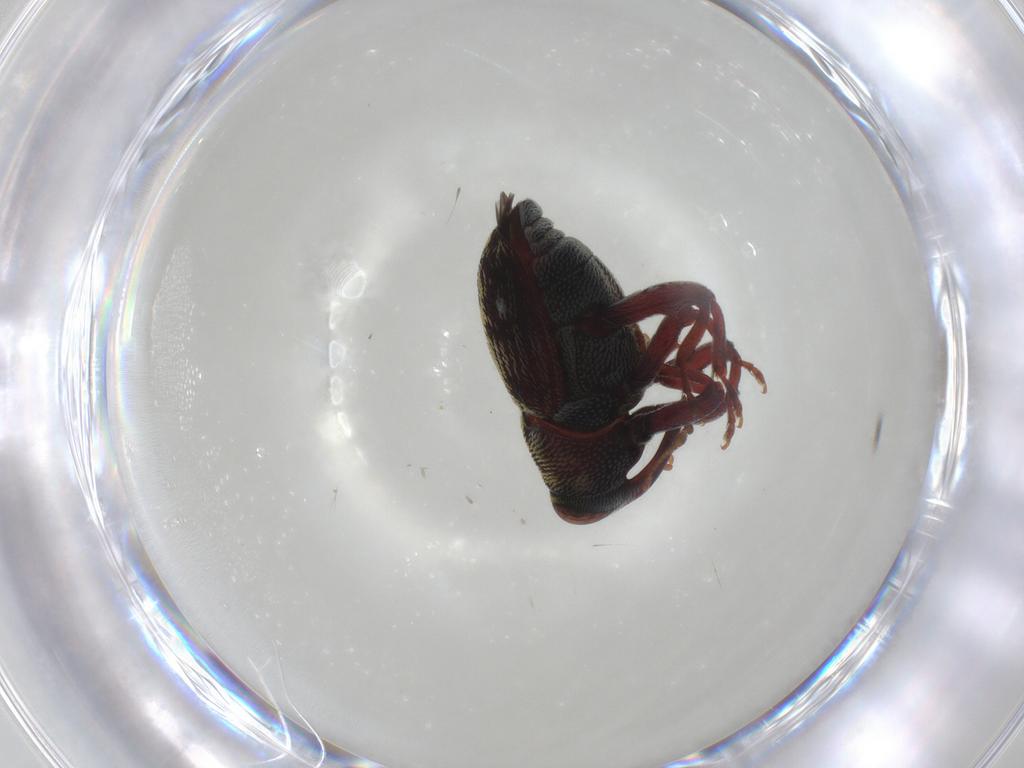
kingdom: Animalia
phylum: Arthropoda
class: Insecta
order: Coleoptera
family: Curculionidae
